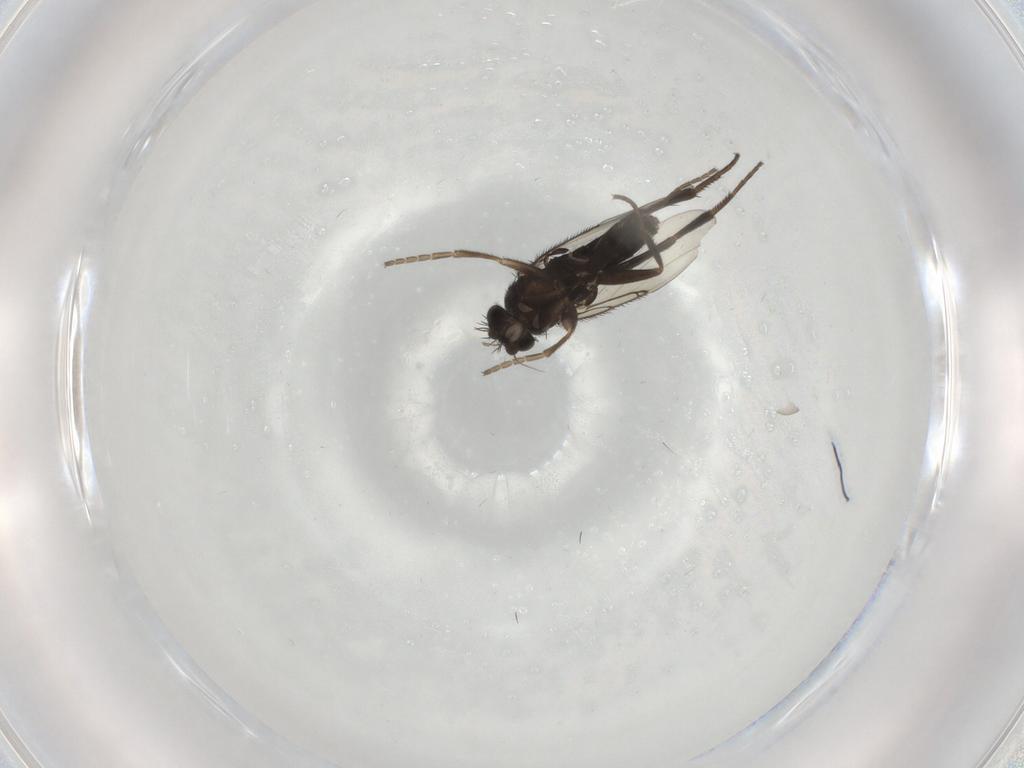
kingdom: Animalia
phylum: Arthropoda
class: Insecta
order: Diptera
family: Phoridae
